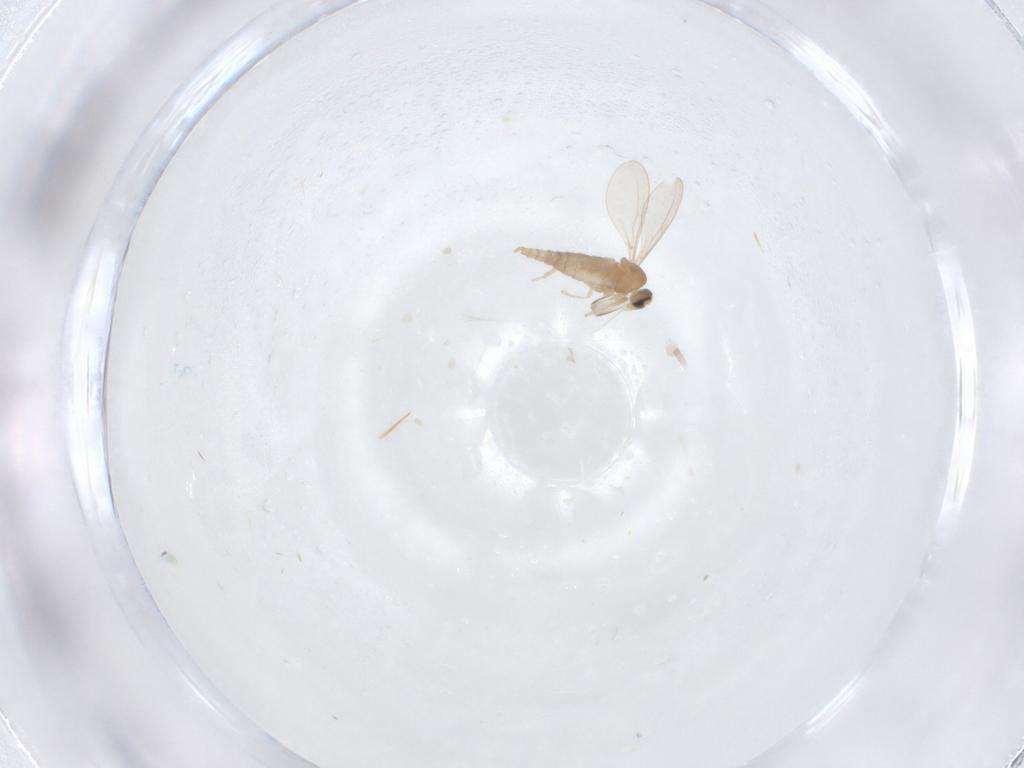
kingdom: Animalia
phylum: Arthropoda
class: Insecta
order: Diptera
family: Cecidomyiidae
